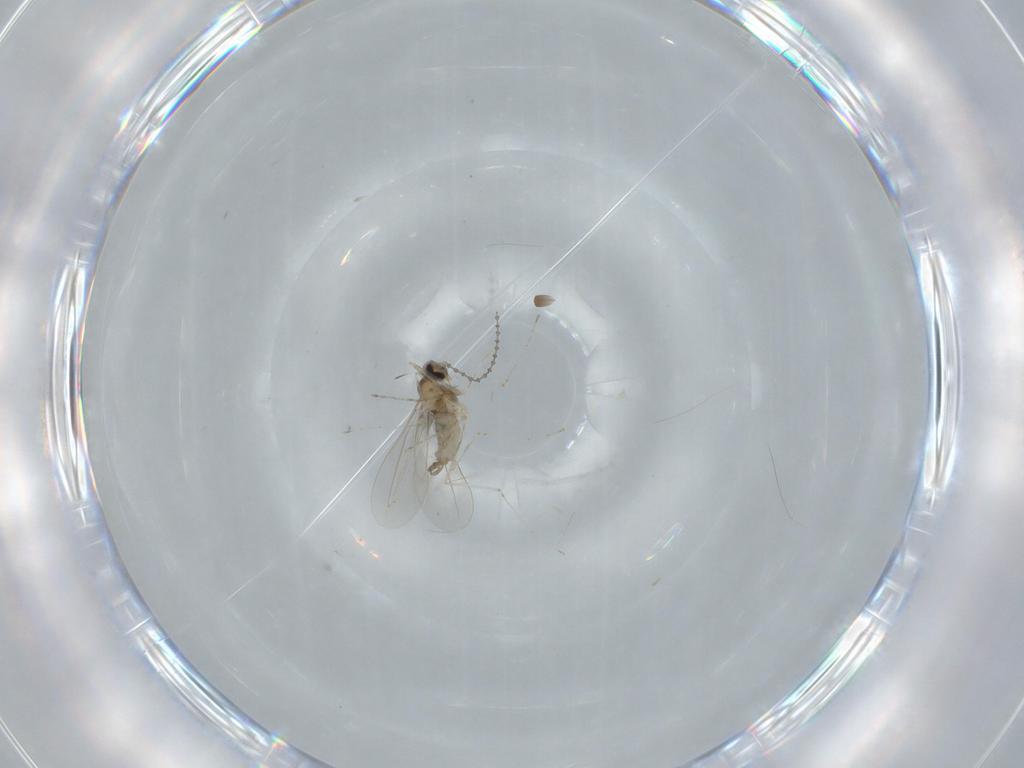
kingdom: Animalia
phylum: Arthropoda
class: Insecta
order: Diptera
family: Cecidomyiidae
